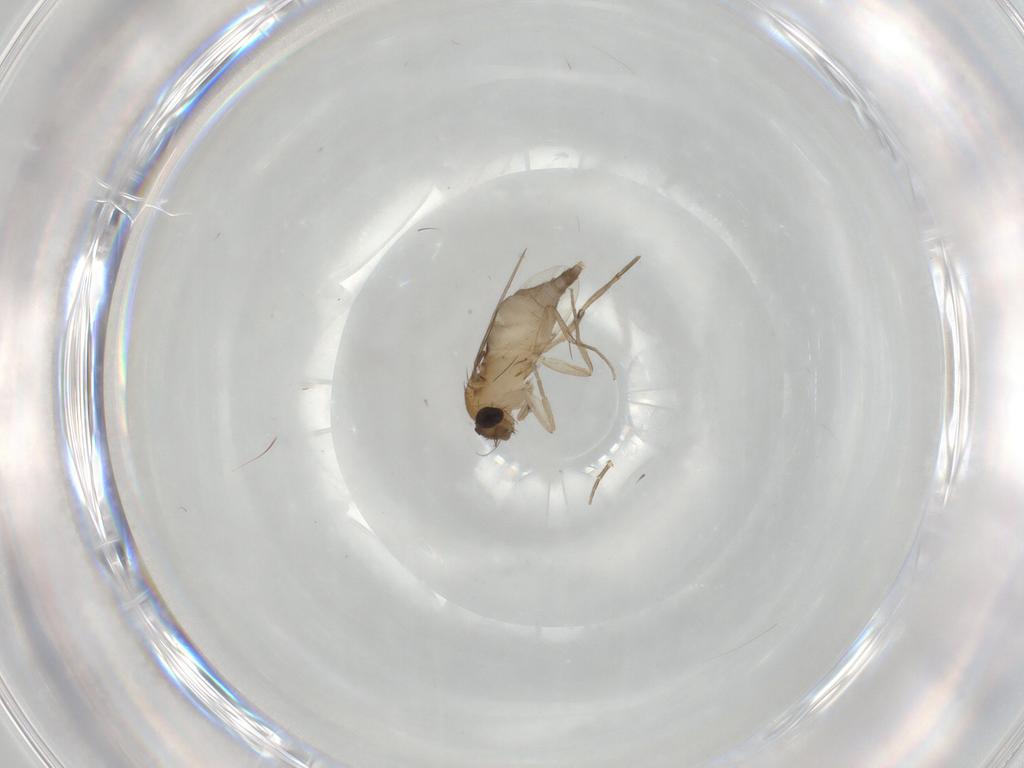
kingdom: Animalia
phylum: Arthropoda
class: Insecta
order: Diptera
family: Phoridae
